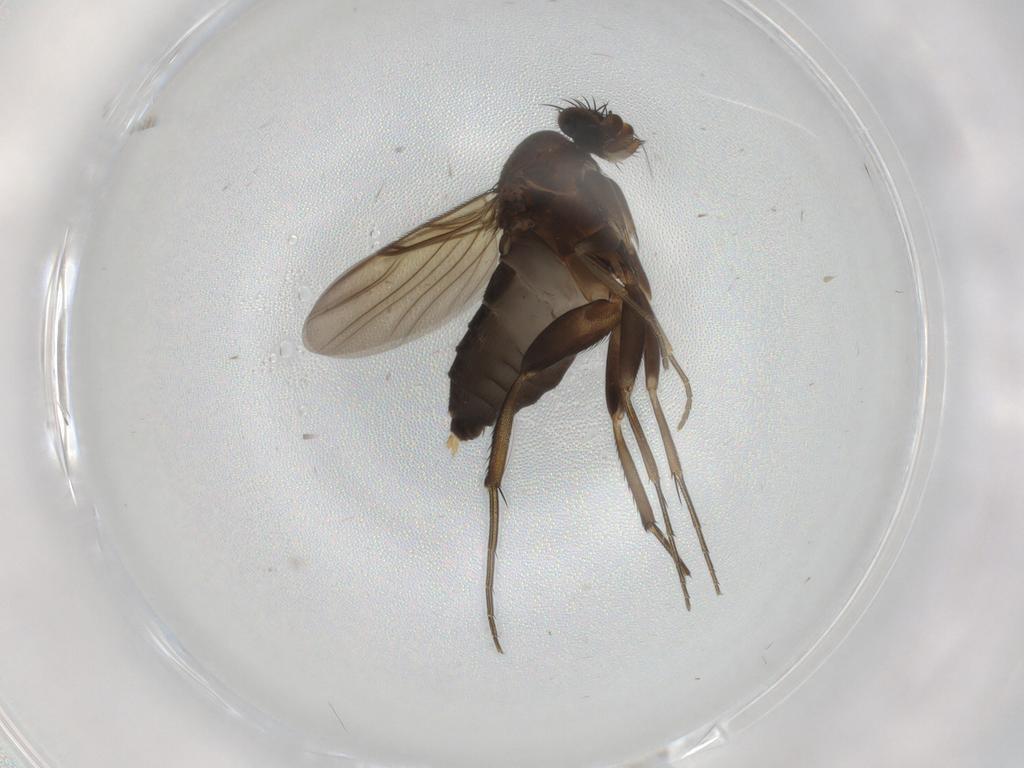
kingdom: Animalia
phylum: Arthropoda
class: Insecta
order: Diptera
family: Phoridae
